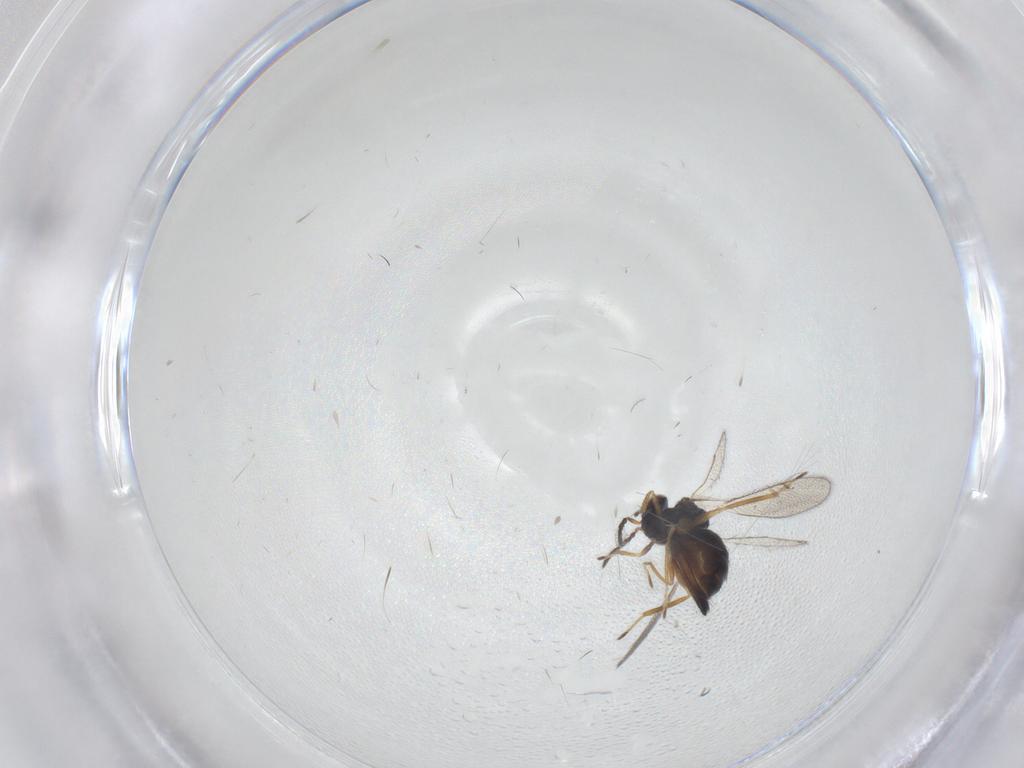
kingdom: Animalia
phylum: Arthropoda
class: Insecta
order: Hymenoptera
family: Eulophidae
